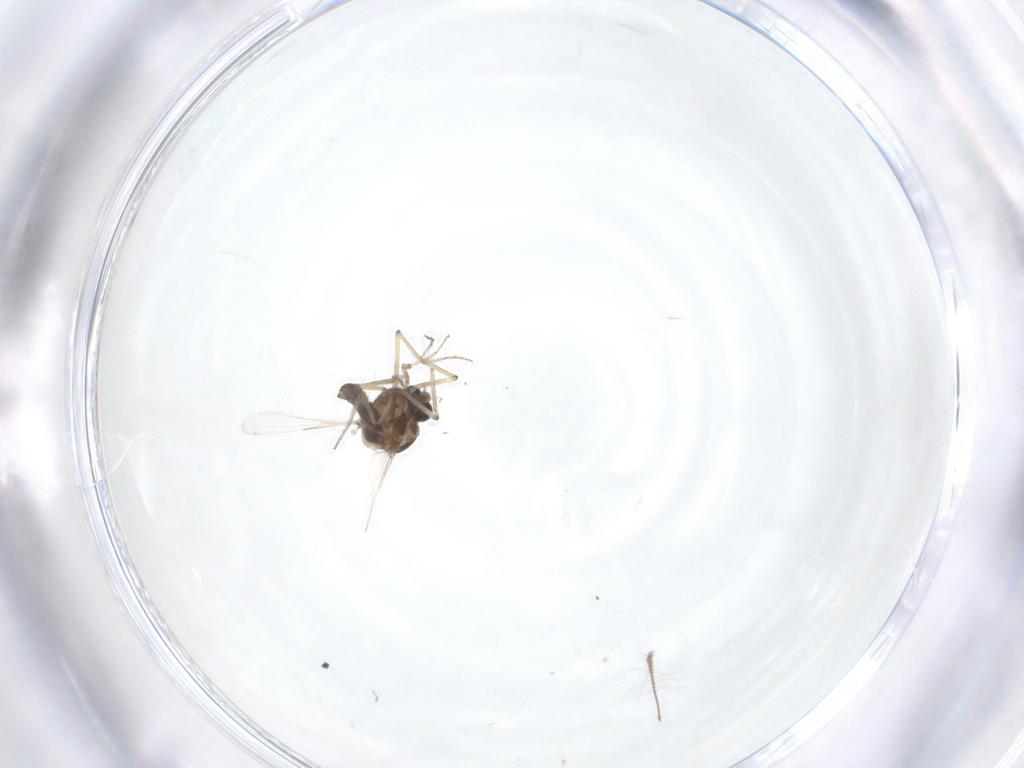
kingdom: Animalia
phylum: Arthropoda
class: Insecta
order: Diptera
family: Ceratopogonidae
